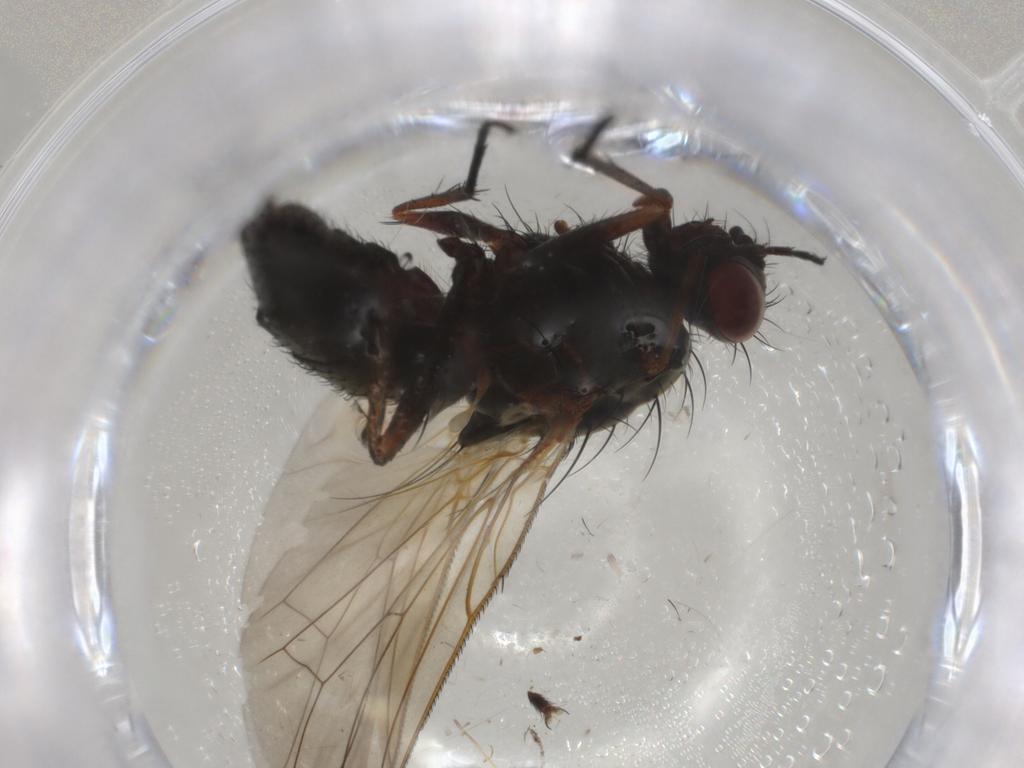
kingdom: Animalia
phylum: Arthropoda
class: Insecta
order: Diptera
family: Anthomyiidae
